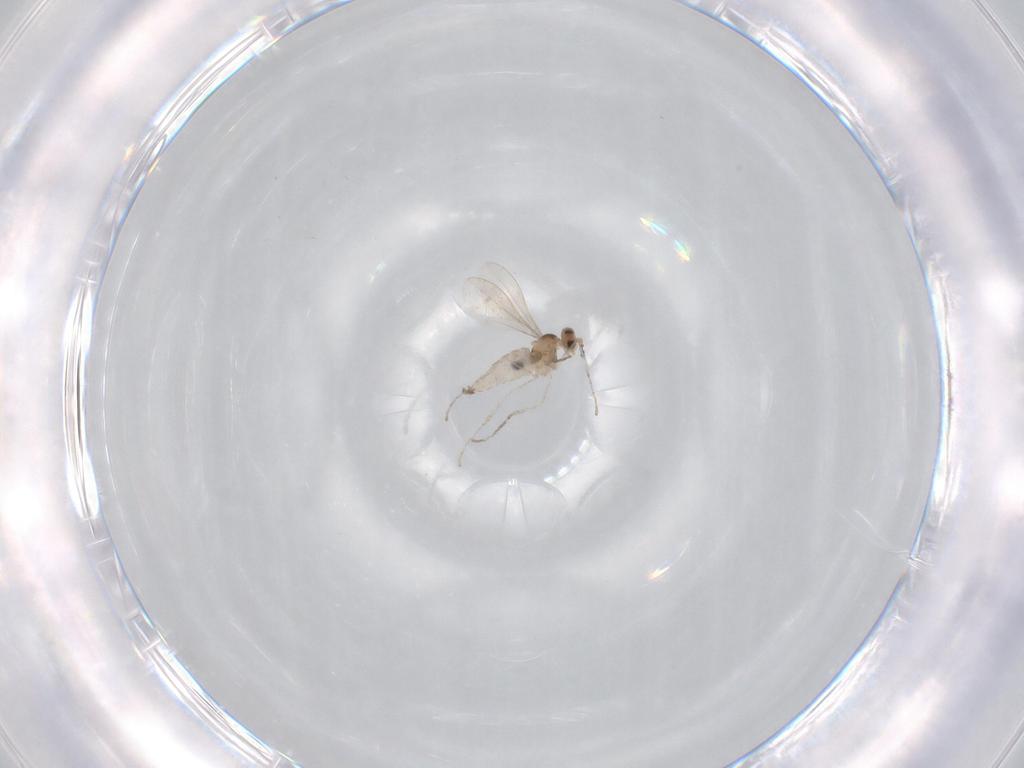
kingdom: Animalia
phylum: Arthropoda
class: Insecta
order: Diptera
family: Cecidomyiidae
